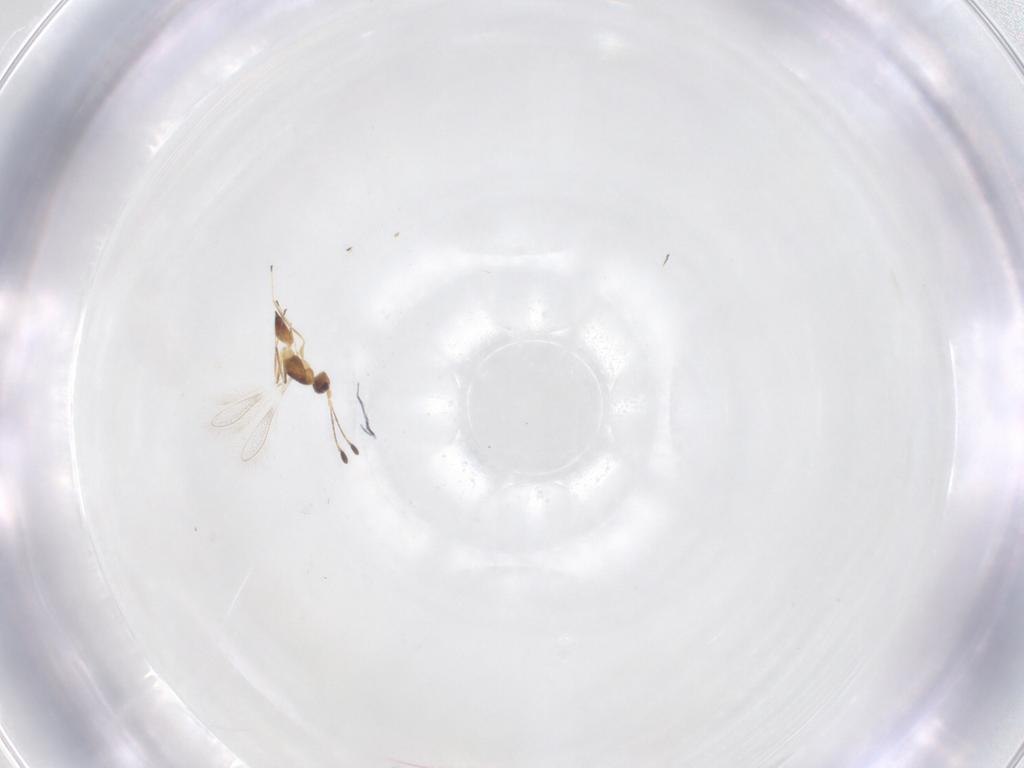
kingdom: Animalia
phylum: Arthropoda
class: Insecta
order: Hymenoptera
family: Mymaridae
